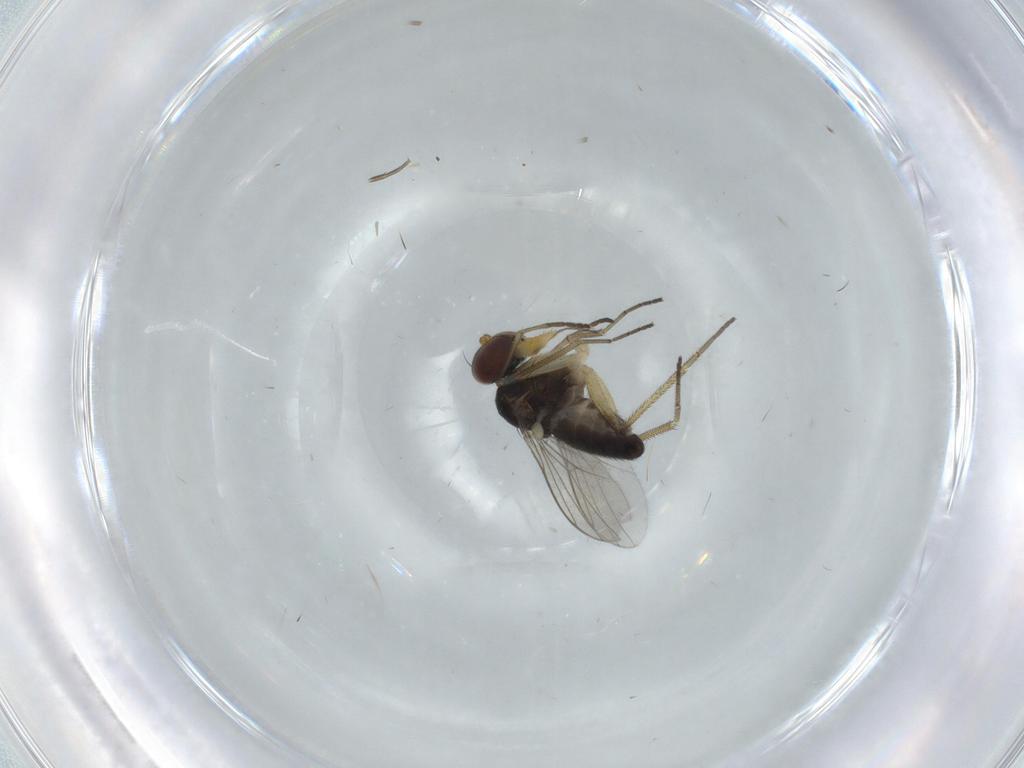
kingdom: Animalia
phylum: Arthropoda
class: Insecta
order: Diptera
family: Dolichopodidae
